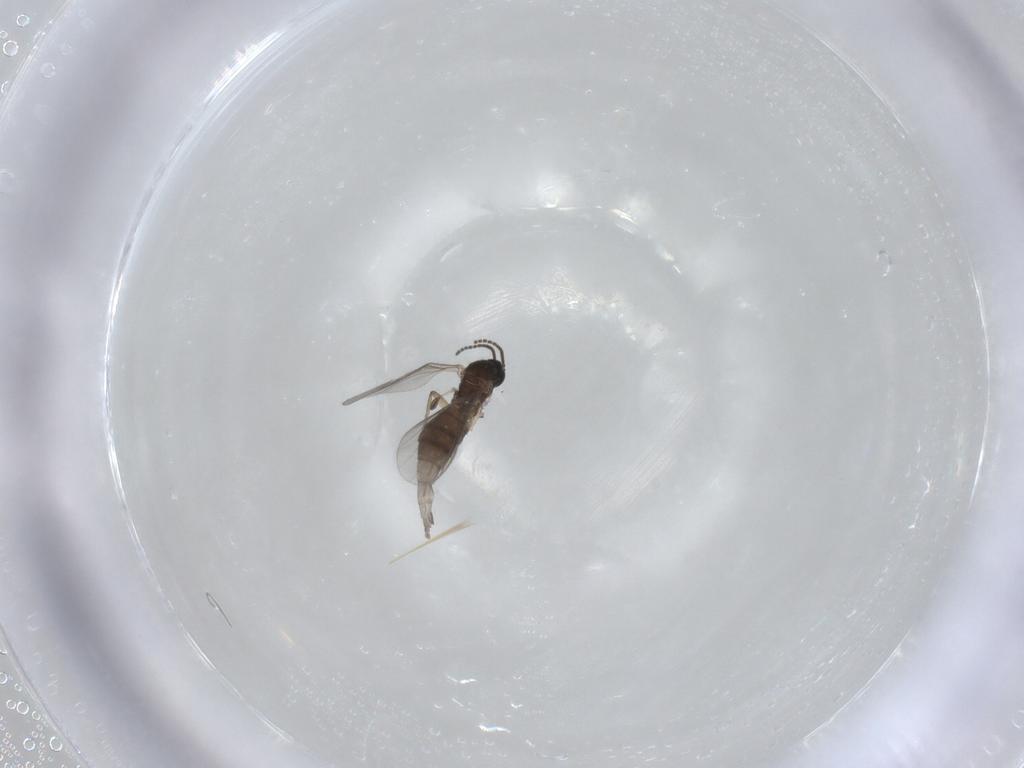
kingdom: Animalia
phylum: Arthropoda
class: Insecta
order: Diptera
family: Sciaridae
